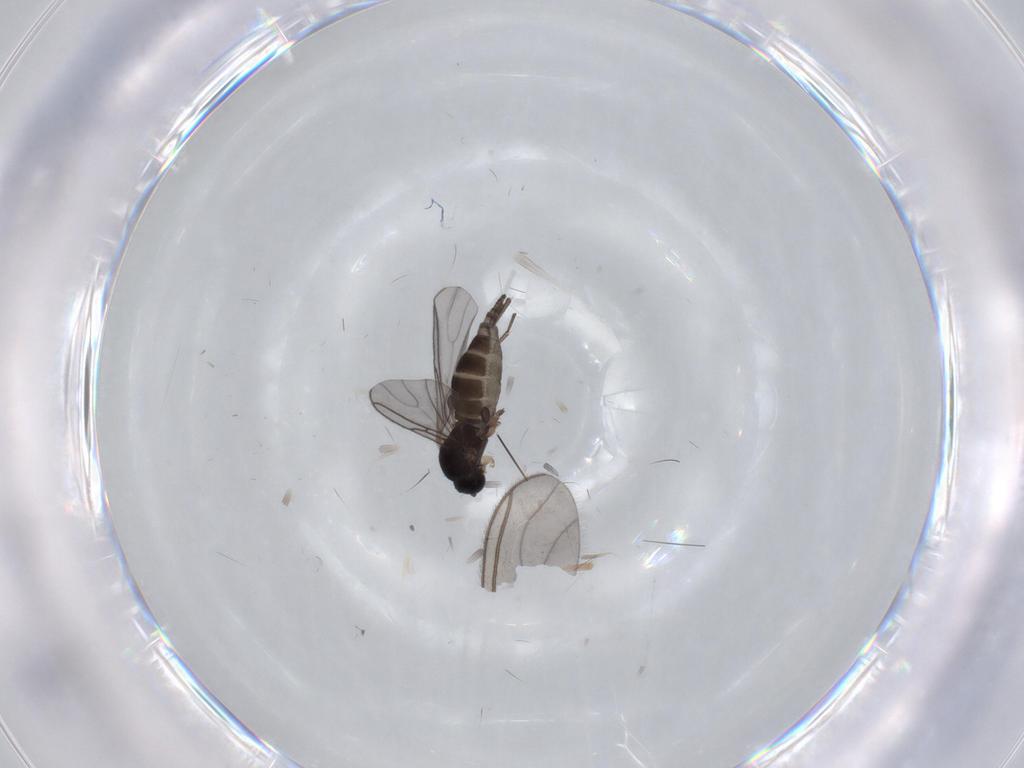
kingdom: Animalia
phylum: Arthropoda
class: Insecta
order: Diptera
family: Sciaridae
